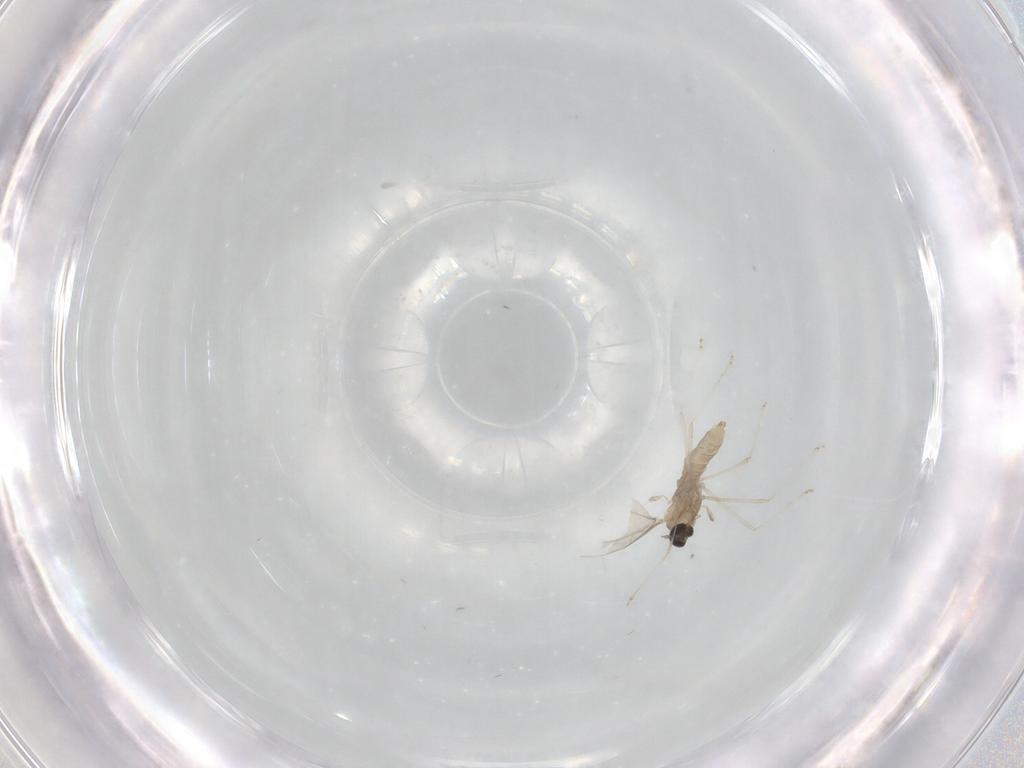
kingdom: Animalia
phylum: Arthropoda
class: Insecta
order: Diptera
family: Cecidomyiidae
